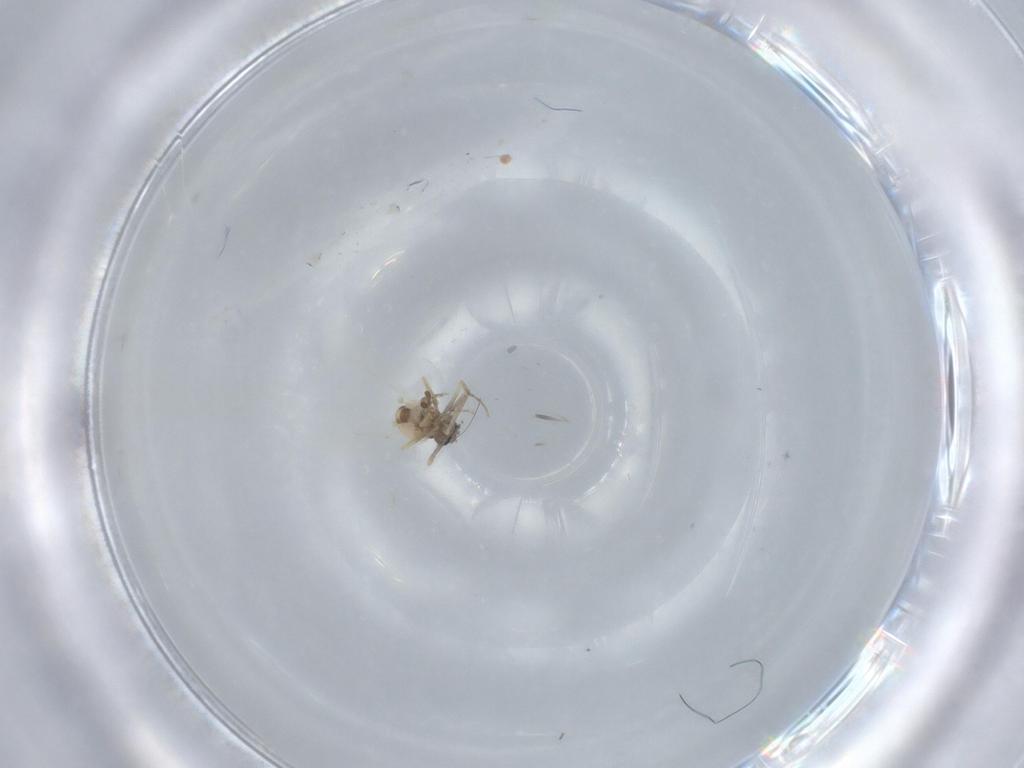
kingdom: Animalia
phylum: Arthropoda
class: Insecta
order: Diptera
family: Ceratopogonidae
